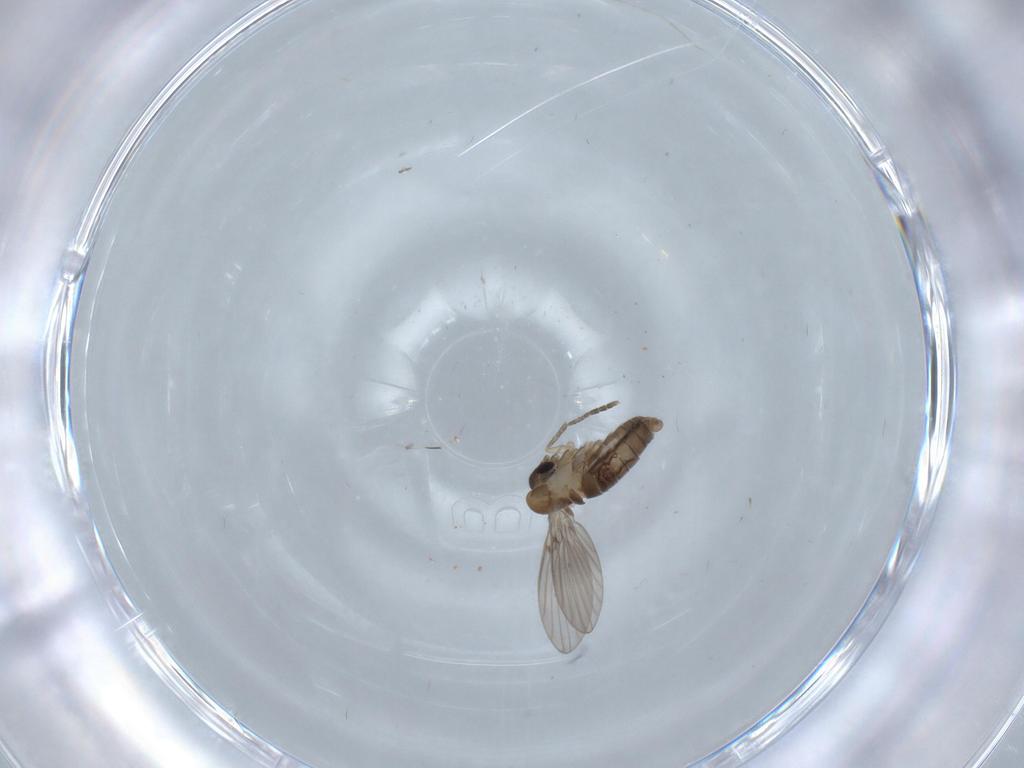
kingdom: Animalia
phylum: Arthropoda
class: Insecta
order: Diptera
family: Psychodidae
